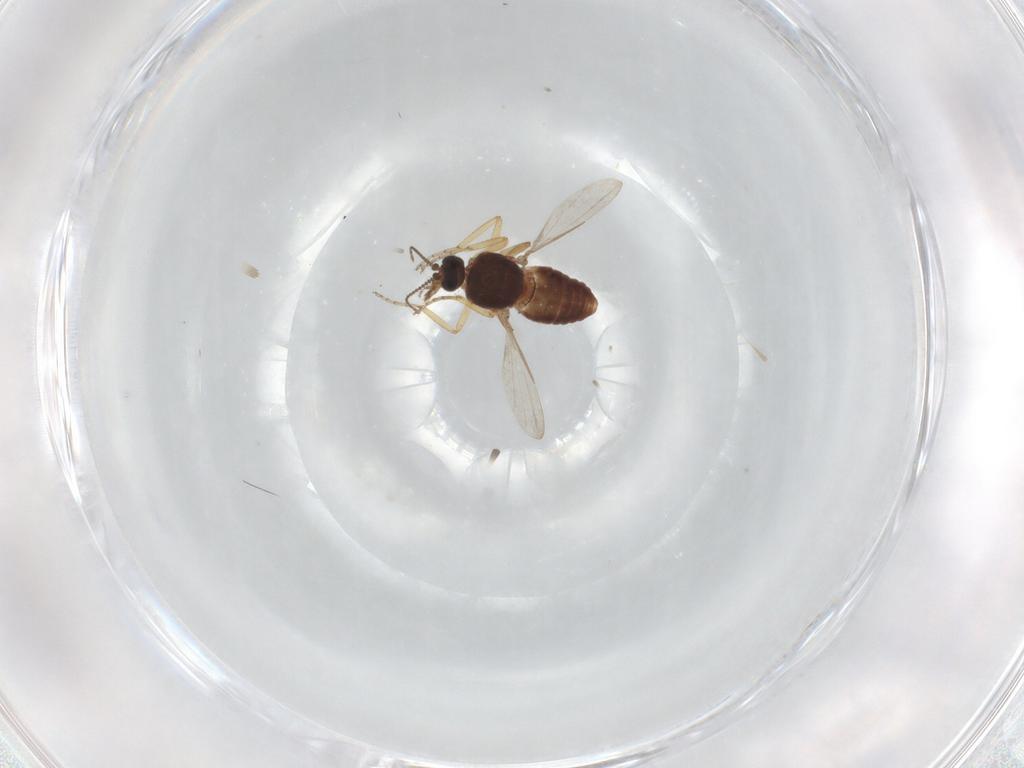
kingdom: Animalia
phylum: Arthropoda
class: Insecta
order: Diptera
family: Ceratopogonidae
